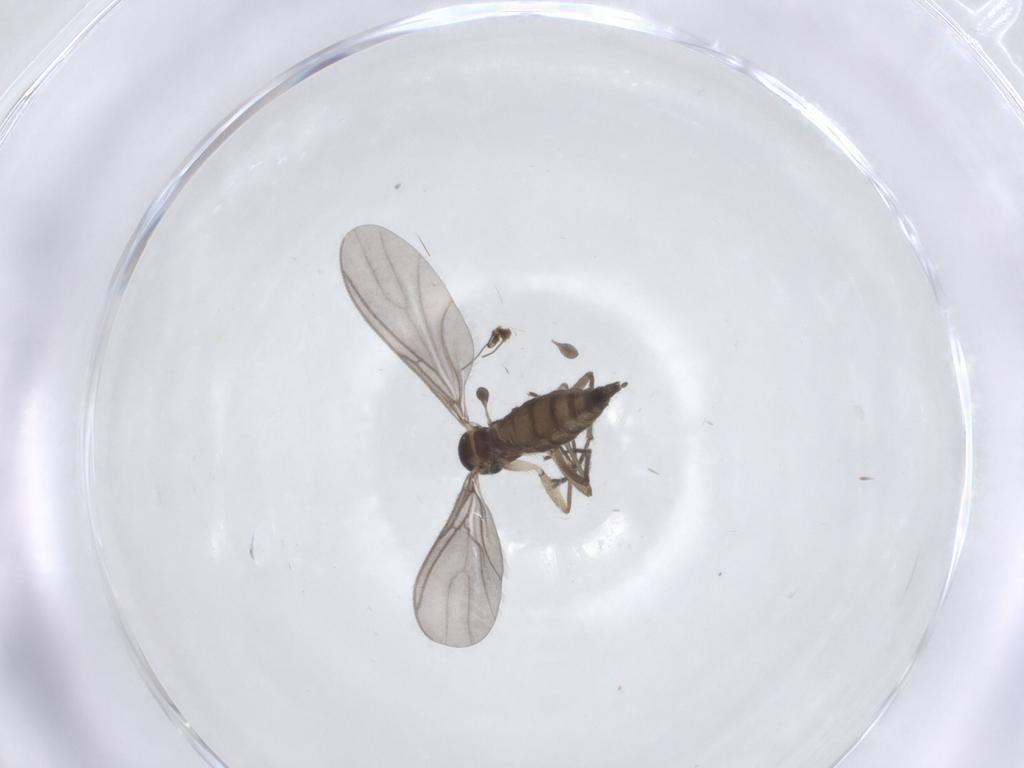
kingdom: Animalia
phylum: Arthropoda
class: Insecta
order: Diptera
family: Sciaridae
